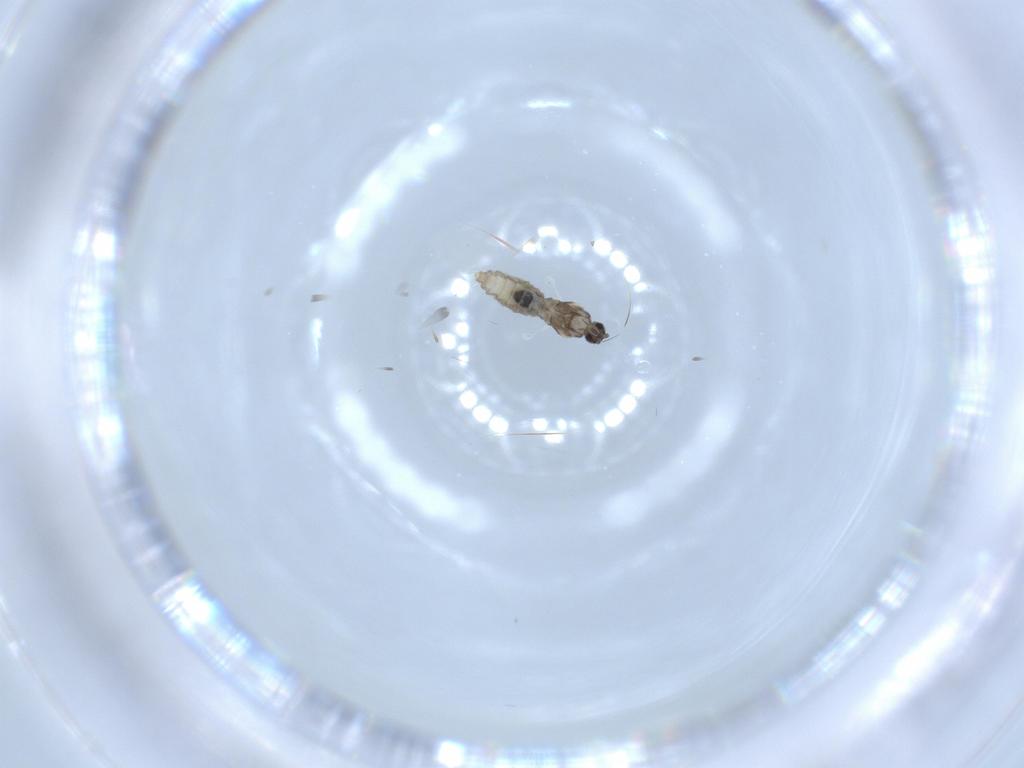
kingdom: Animalia
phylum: Arthropoda
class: Insecta
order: Diptera
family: Cecidomyiidae
